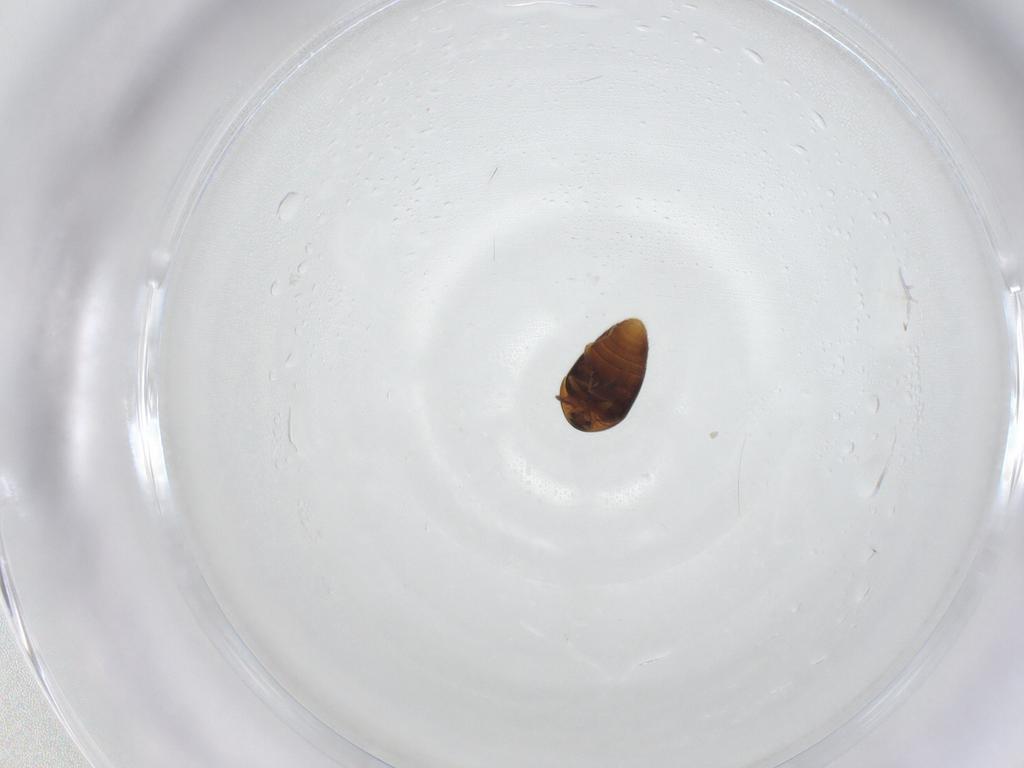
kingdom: Animalia
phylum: Arthropoda
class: Insecta
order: Coleoptera
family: Corylophidae
